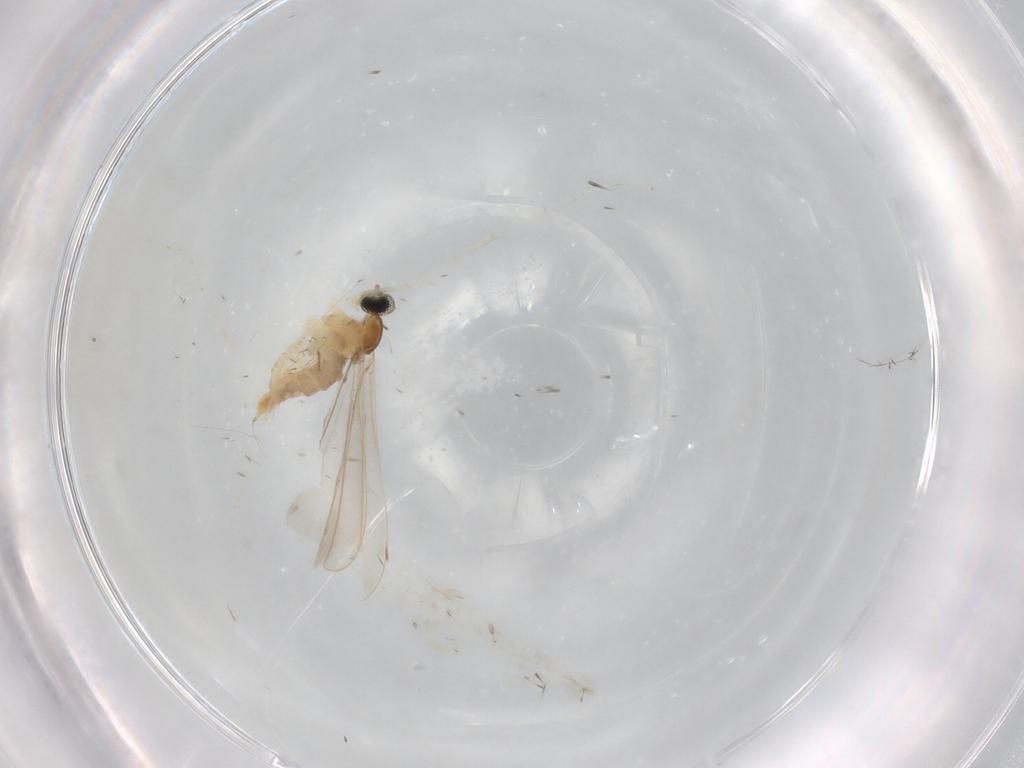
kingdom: Animalia
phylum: Arthropoda
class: Insecta
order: Diptera
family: Cecidomyiidae
